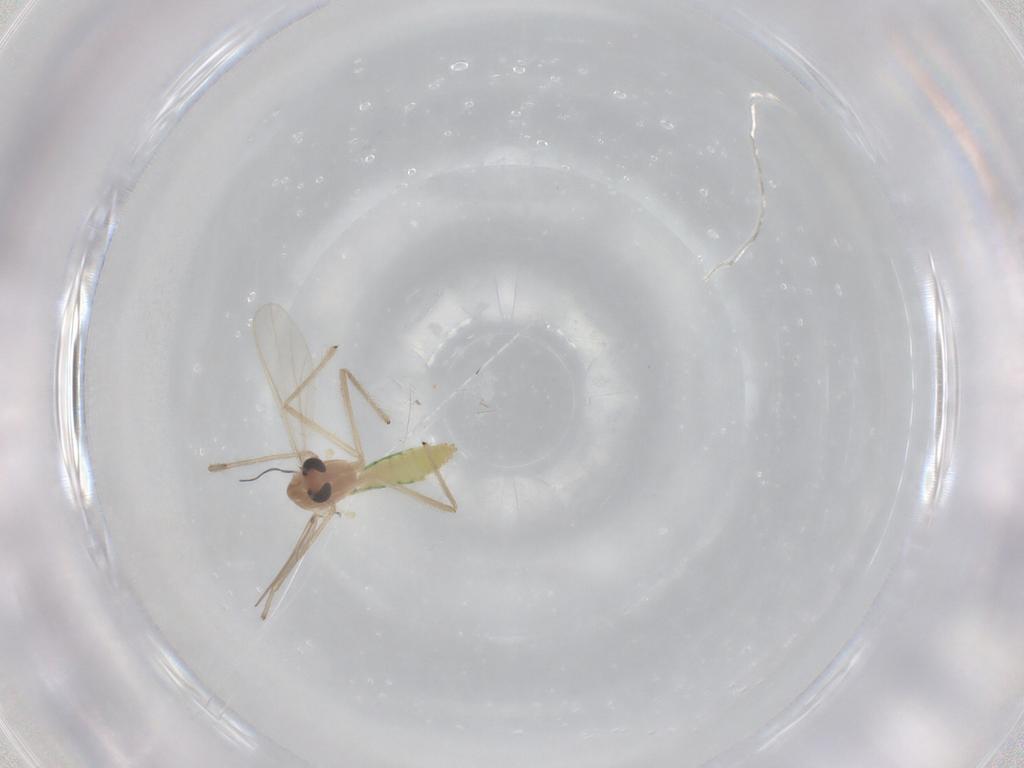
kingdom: Animalia
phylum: Arthropoda
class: Insecta
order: Diptera
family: Chironomidae
